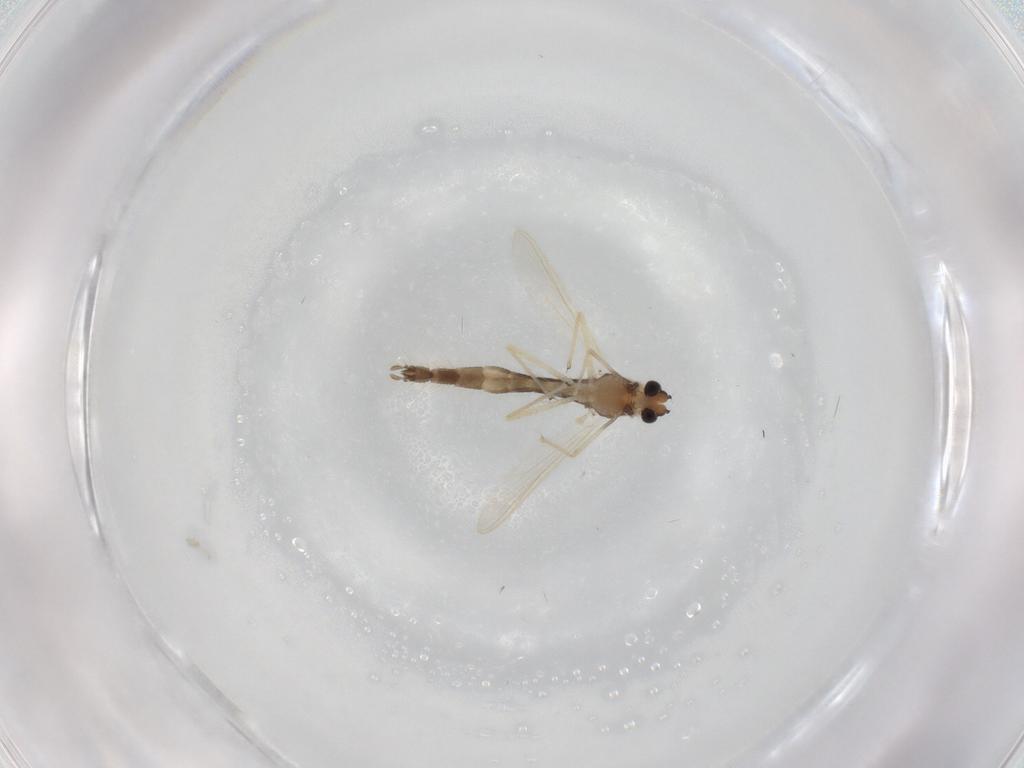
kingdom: Animalia
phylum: Arthropoda
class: Insecta
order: Diptera
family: Chironomidae
